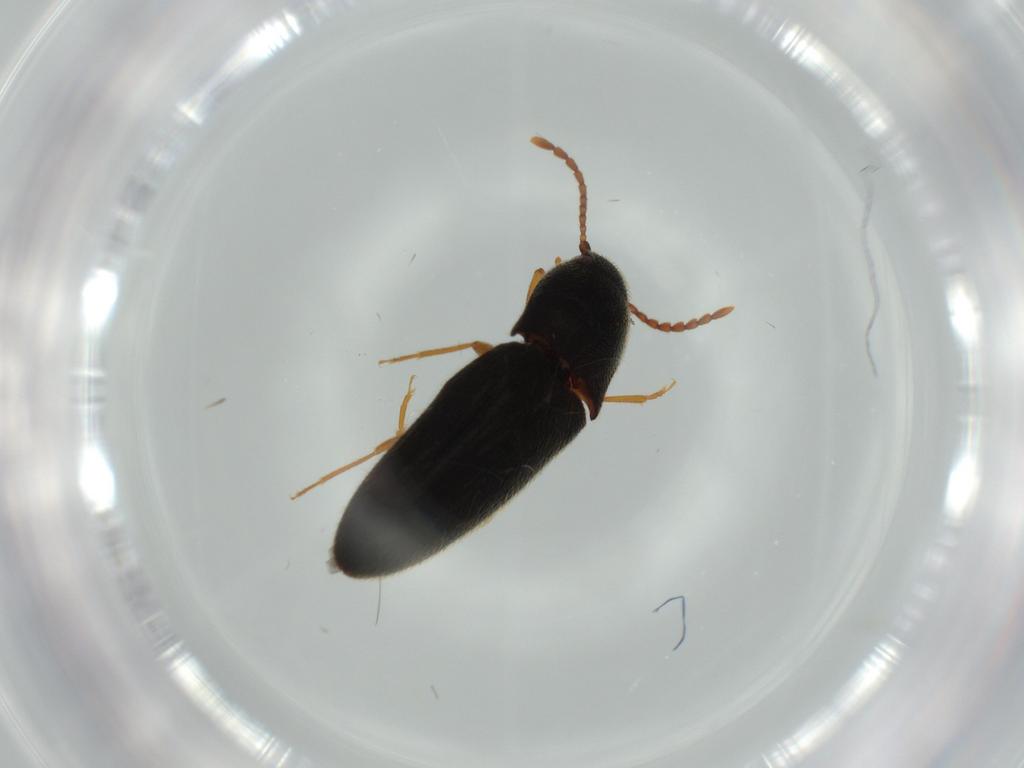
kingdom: Animalia
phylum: Arthropoda
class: Insecta
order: Coleoptera
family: Elateridae
